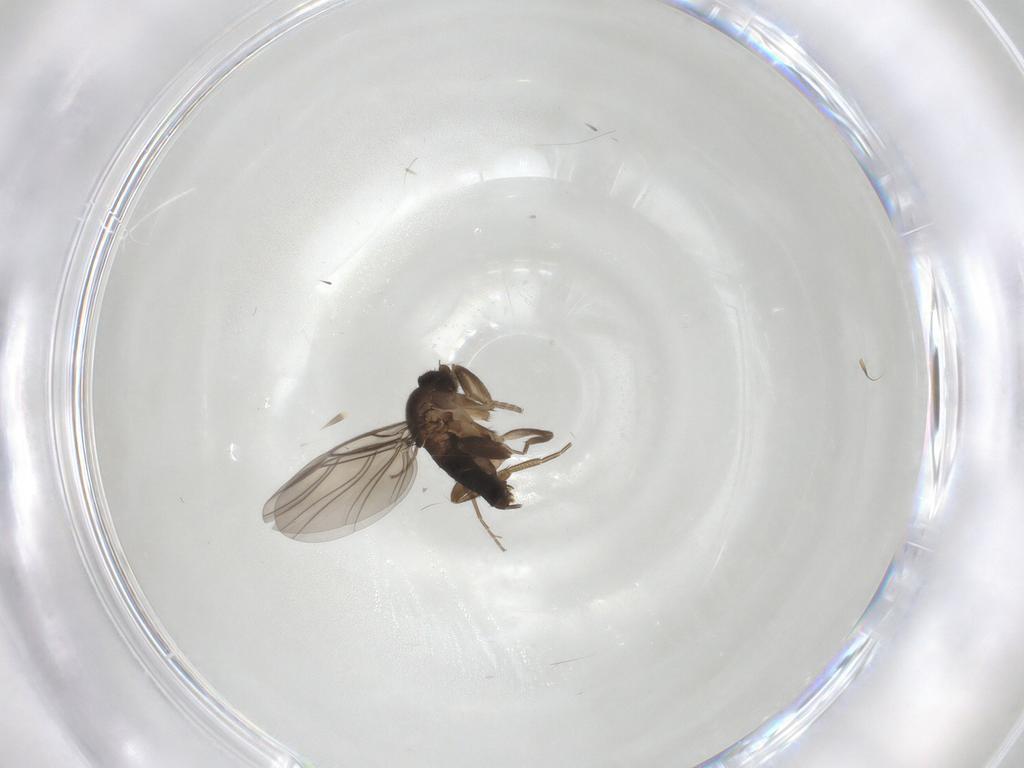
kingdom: Animalia
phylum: Arthropoda
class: Insecta
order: Diptera
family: Phoridae
